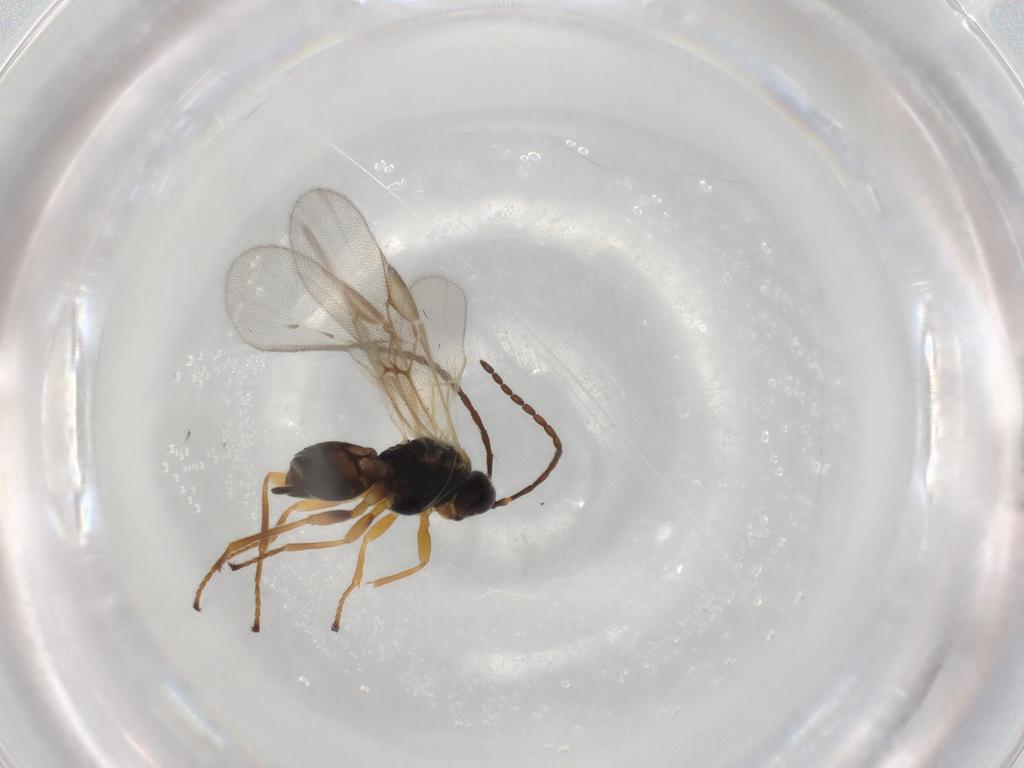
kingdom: Animalia
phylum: Arthropoda
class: Insecta
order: Hymenoptera
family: Braconidae
